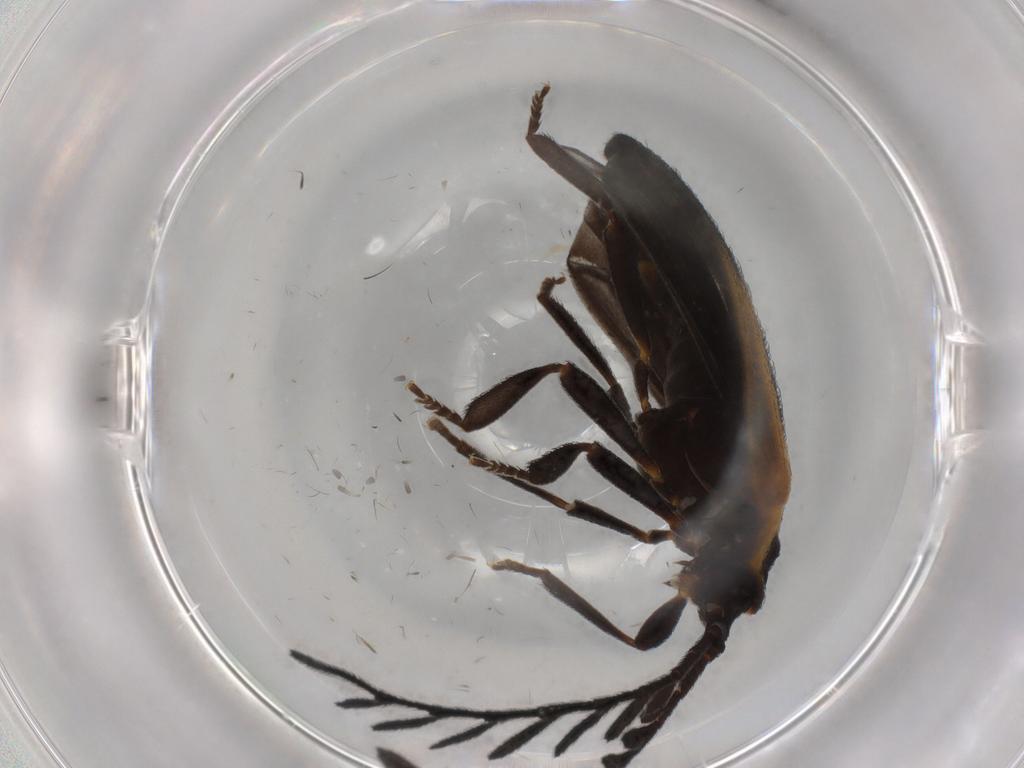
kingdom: Animalia
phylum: Arthropoda
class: Insecta
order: Coleoptera
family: Lycidae
